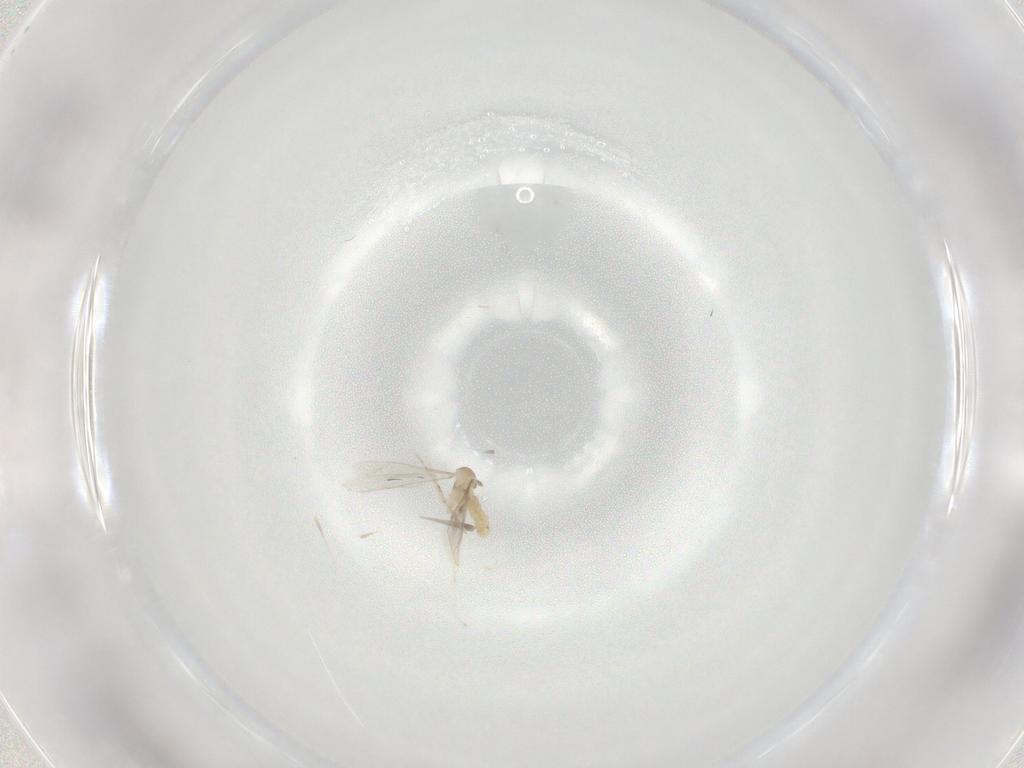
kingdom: Animalia
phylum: Arthropoda
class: Insecta
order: Diptera
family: Cecidomyiidae
